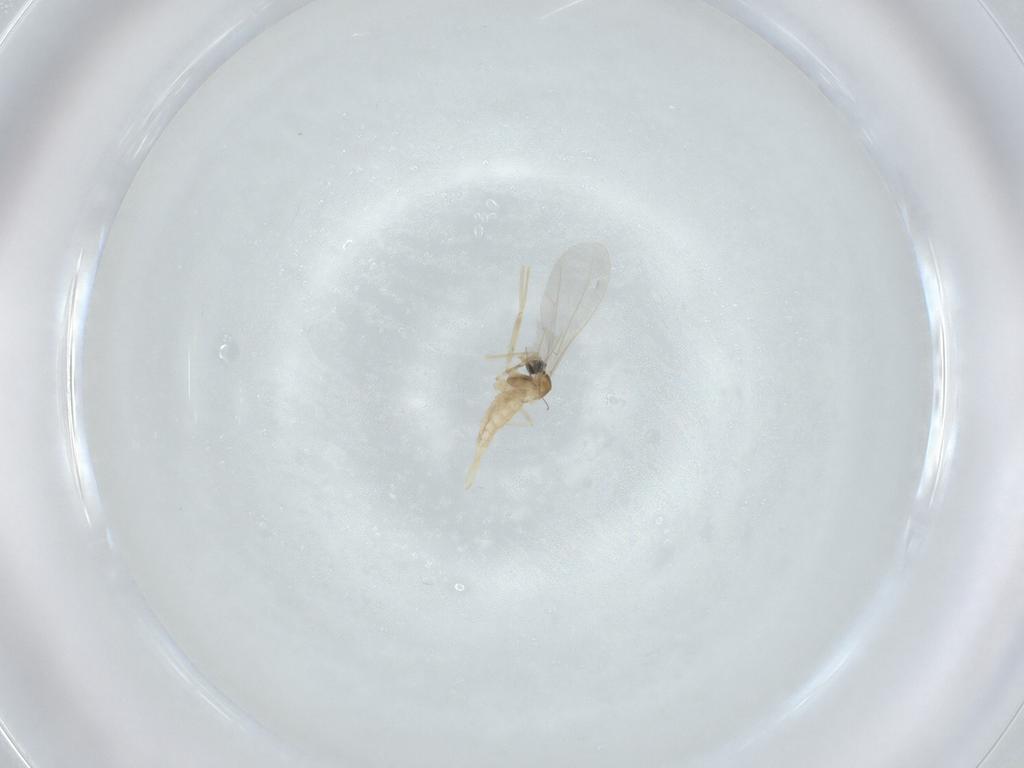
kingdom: Animalia
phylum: Arthropoda
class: Insecta
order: Diptera
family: Cecidomyiidae
